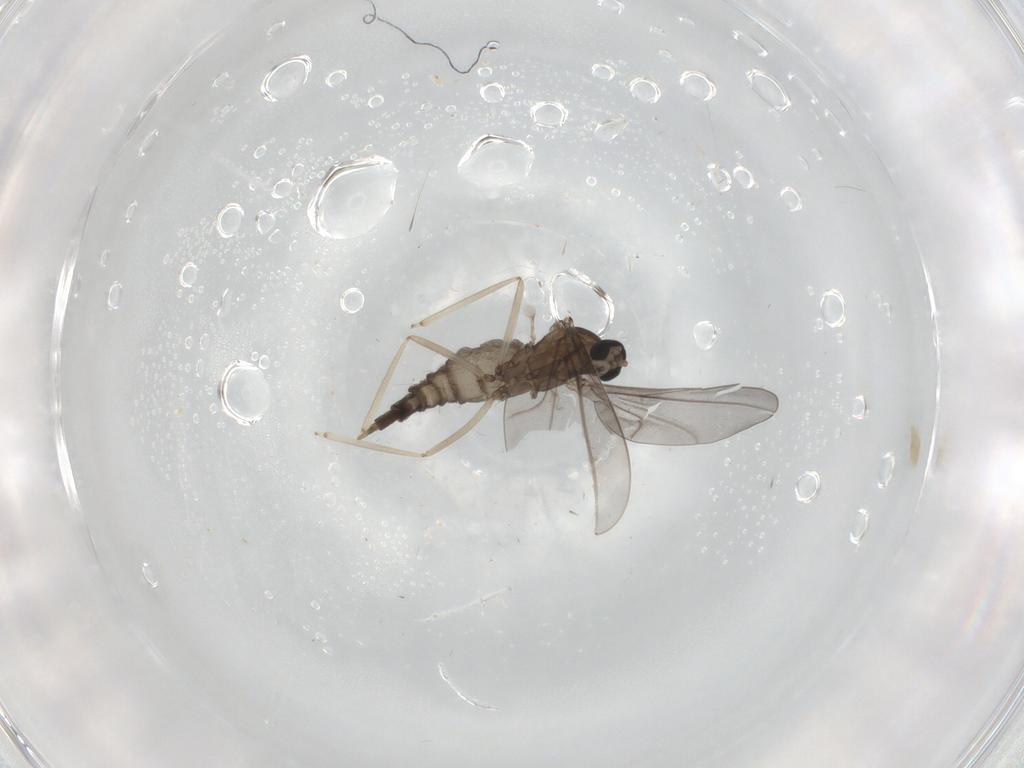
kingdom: Animalia
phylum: Arthropoda
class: Insecta
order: Diptera
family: Cecidomyiidae
